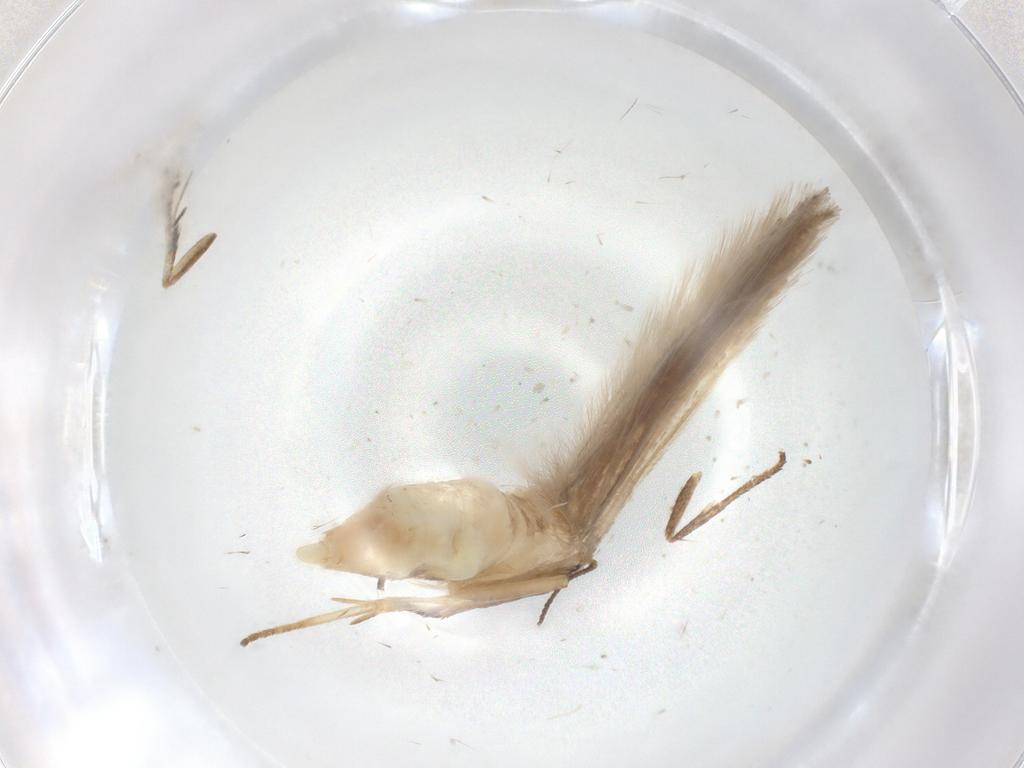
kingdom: Animalia
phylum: Arthropoda
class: Insecta
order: Lepidoptera
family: Gelechiidae
